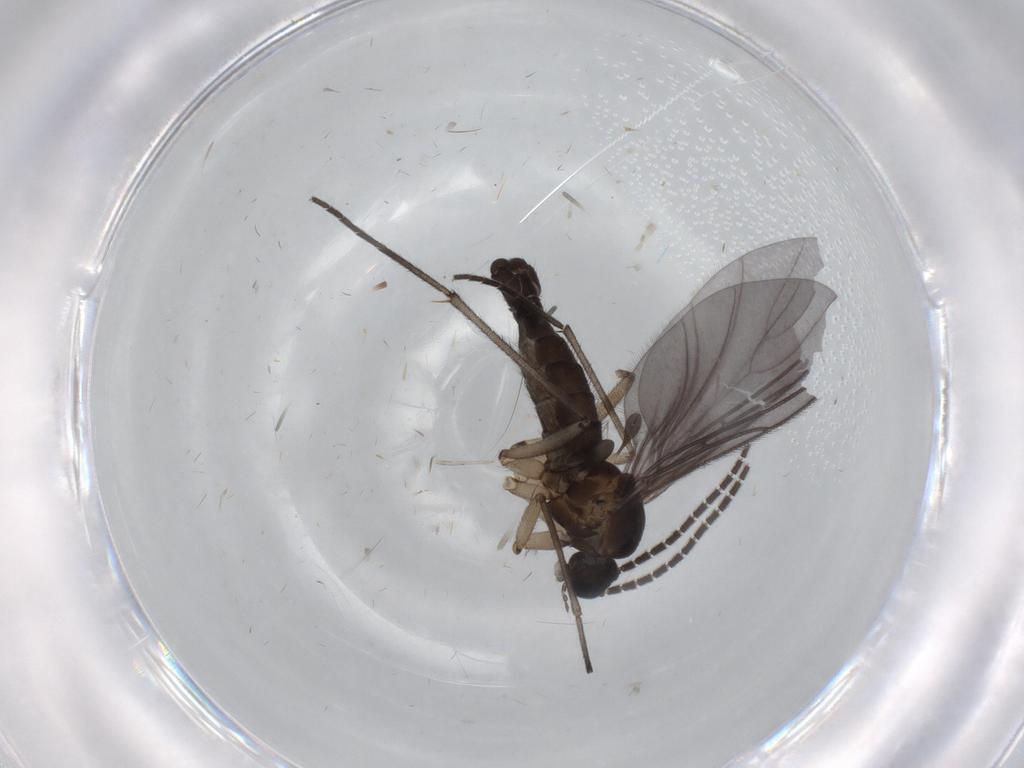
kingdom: Animalia
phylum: Arthropoda
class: Insecta
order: Diptera
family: Sciaridae
